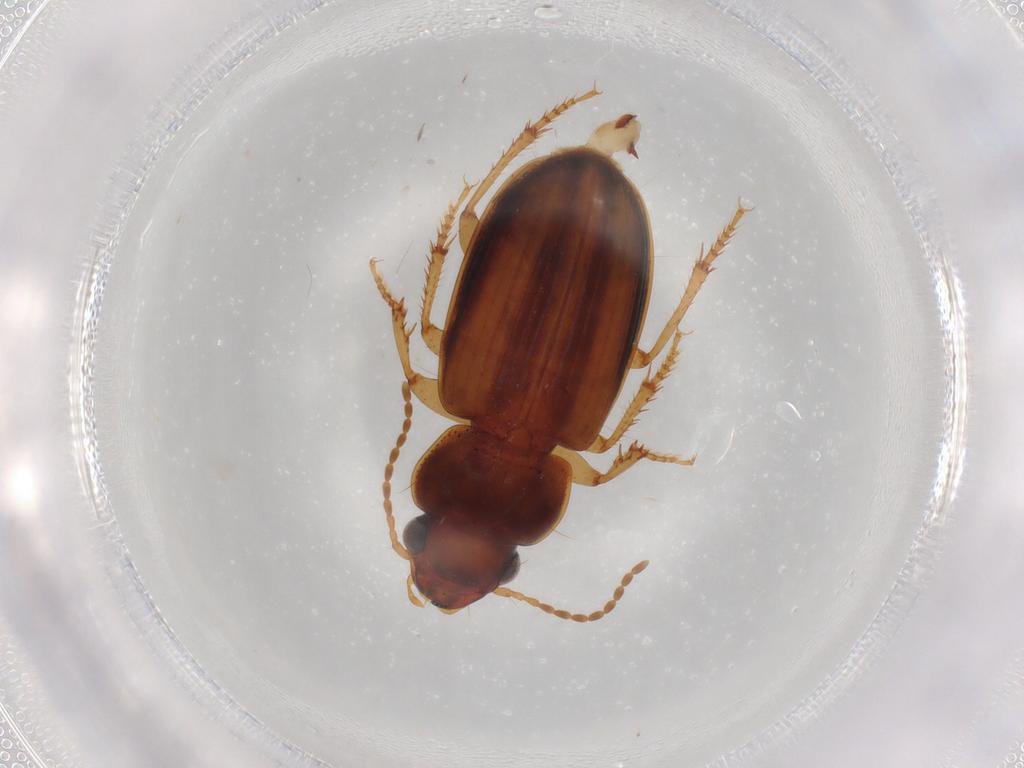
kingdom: Animalia
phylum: Arthropoda
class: Insecta
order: Coleoptera
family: Carabidae
